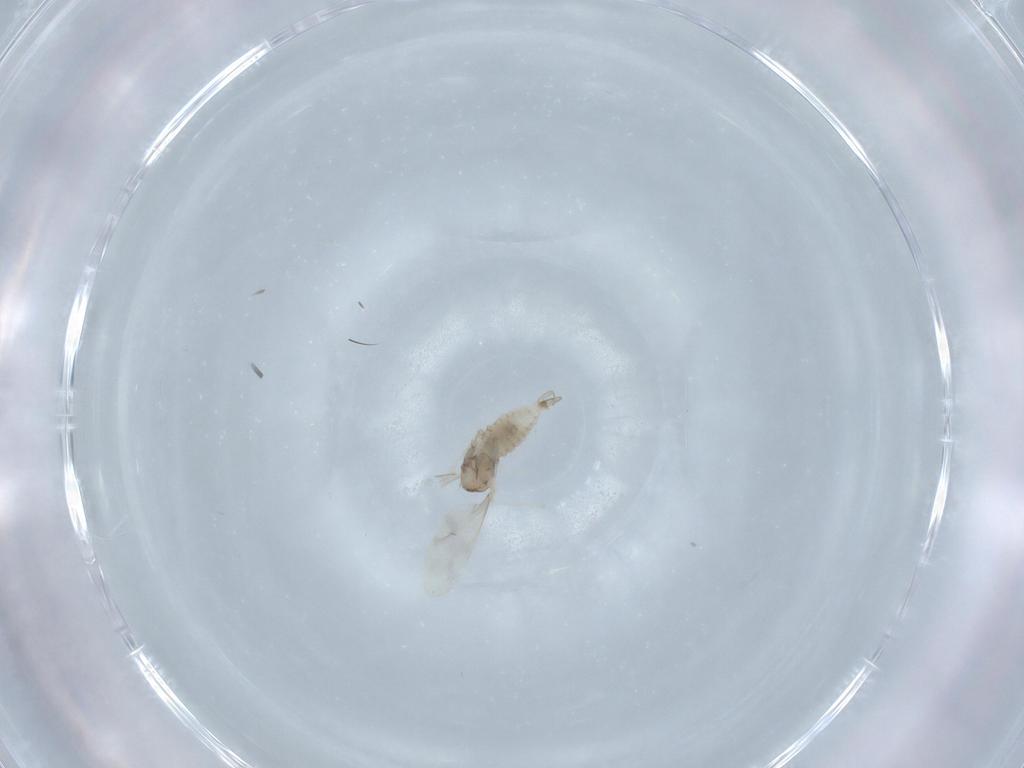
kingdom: Animalia
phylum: Arthropoda
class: Insecta
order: Diptera
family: Cecidomyiidae
